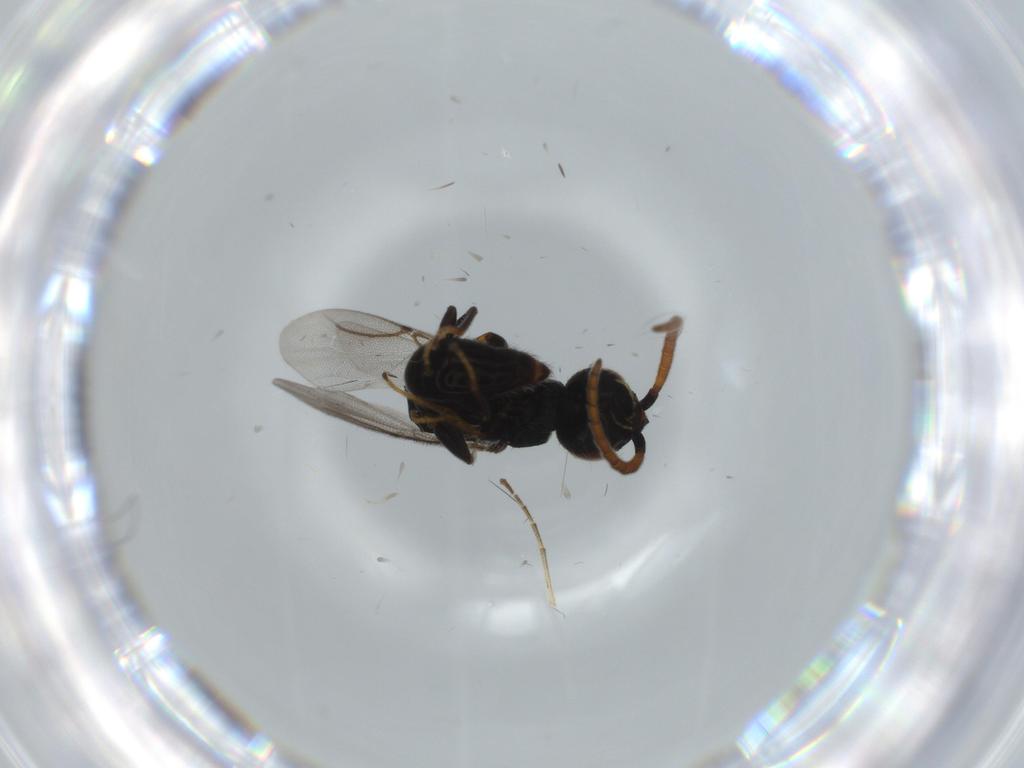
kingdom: Animalia
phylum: Arthropoda
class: Insecta
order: Hymenoptera
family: Bethylidae
